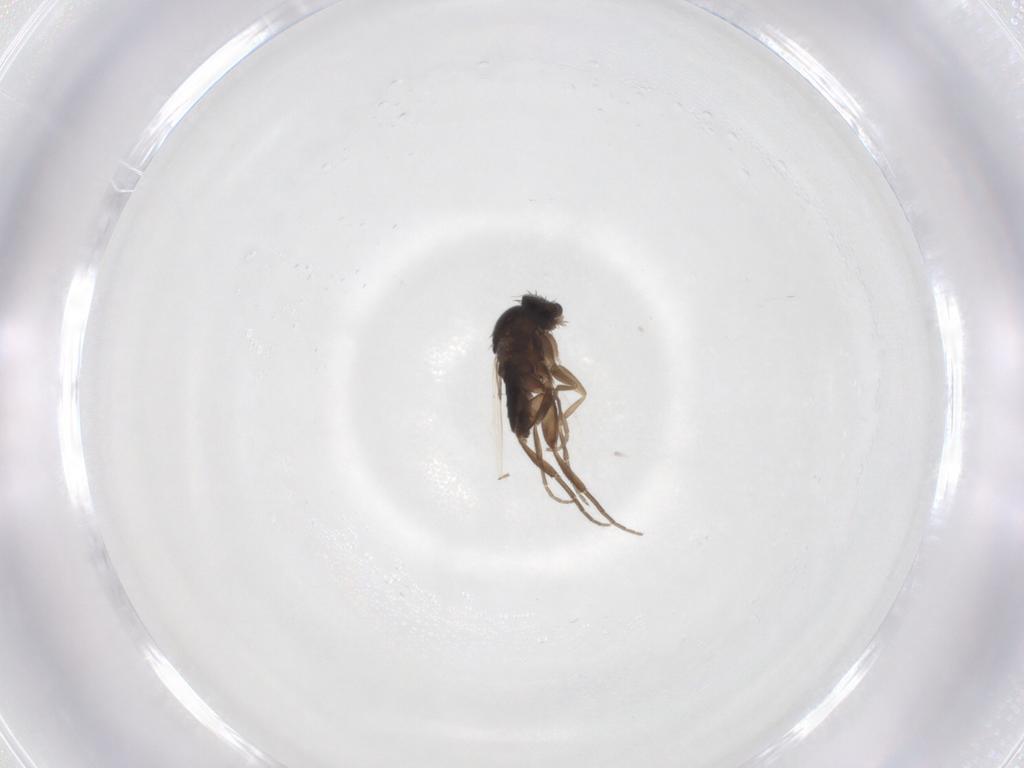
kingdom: Animalia
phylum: Arthropoda
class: Insecta
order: Diptera
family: Phoridae
